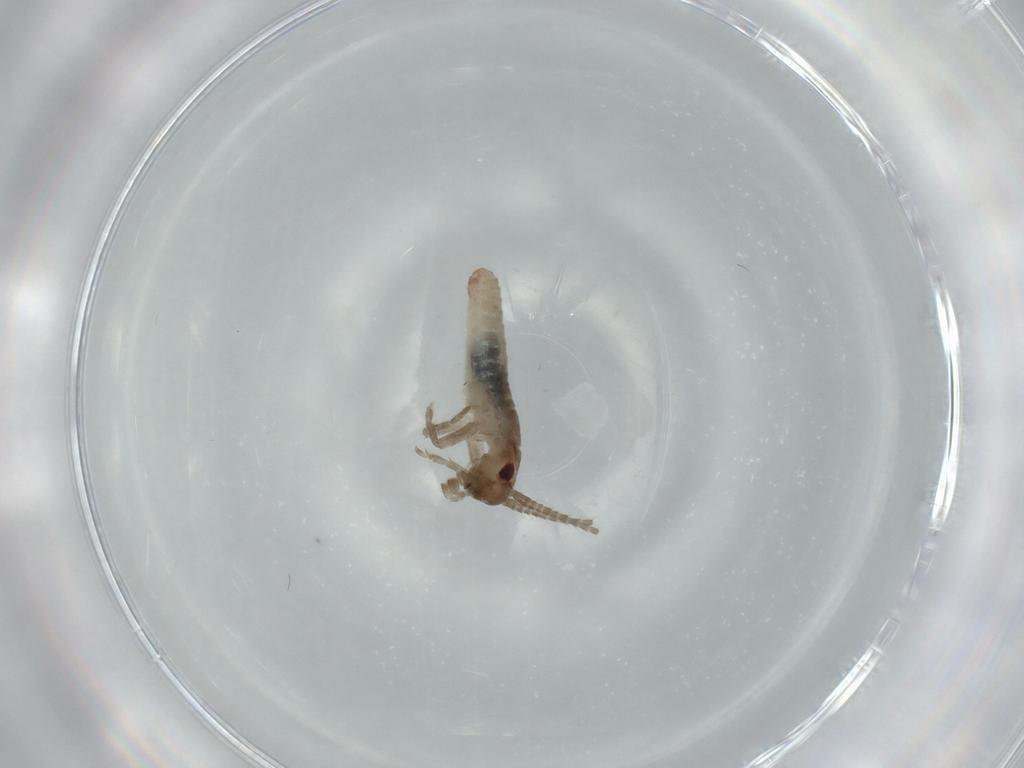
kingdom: Animalia
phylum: Arthropoda
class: Insecta
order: Orthoptera
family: Mogoplistidae
